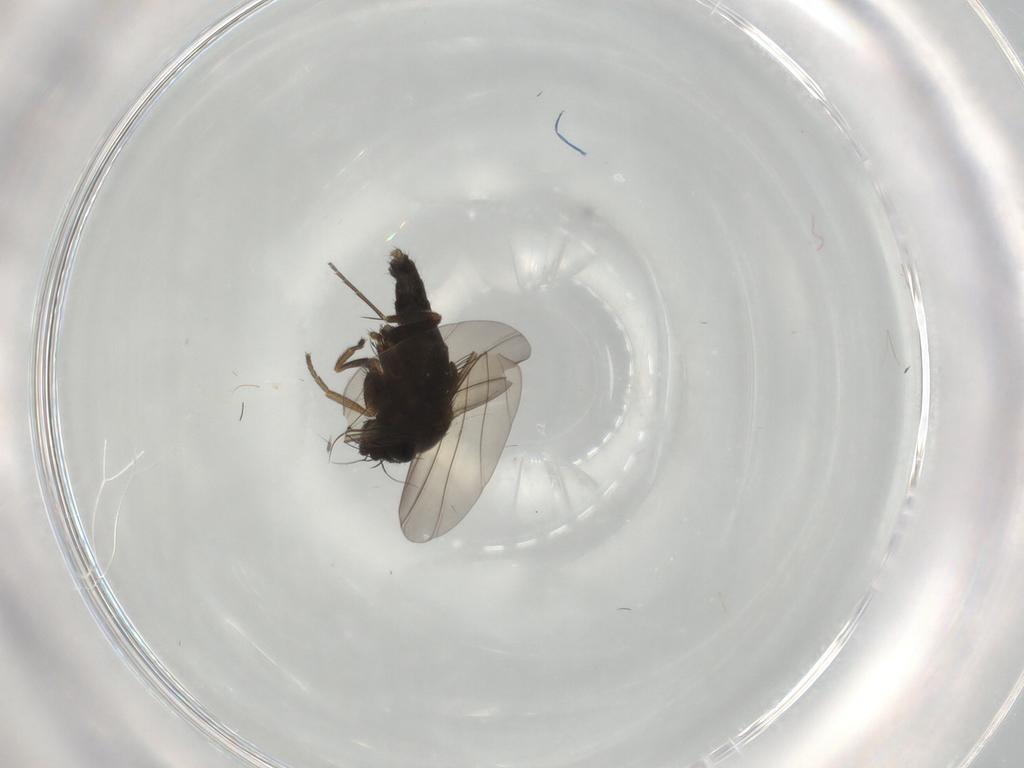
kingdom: Animalia
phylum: Arthropoda
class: Insecta
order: Diptera
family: Phoridae
